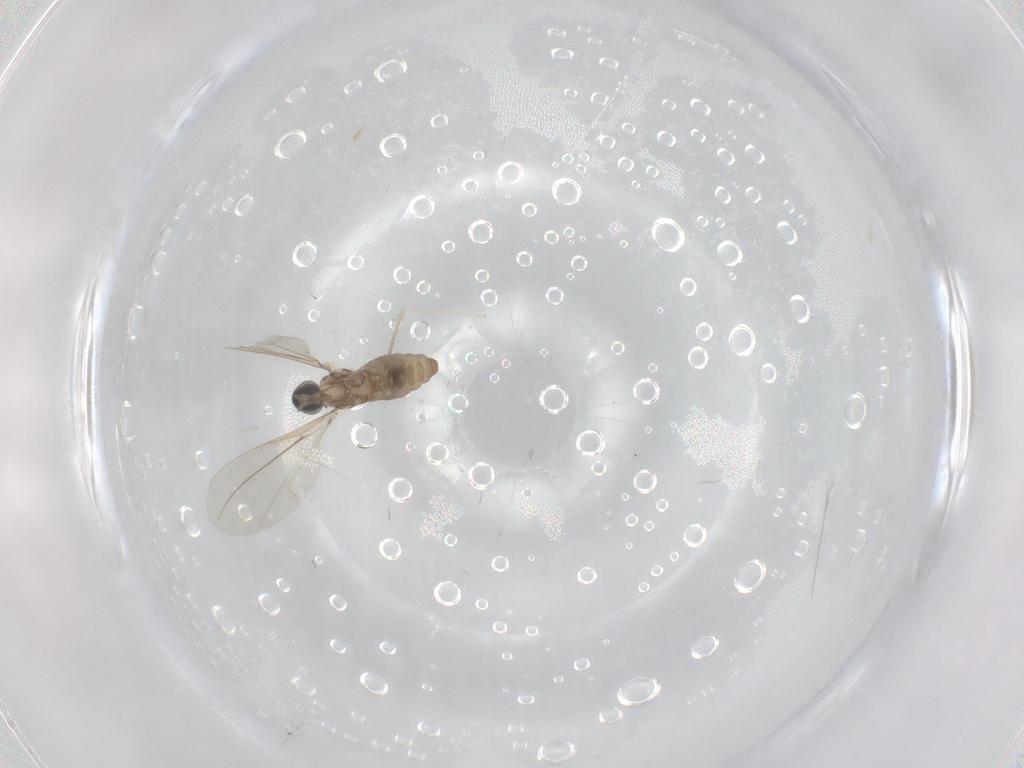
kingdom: Animalia
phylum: Arthropoda
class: Insecta
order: Diptera
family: Cecidomyiidae
